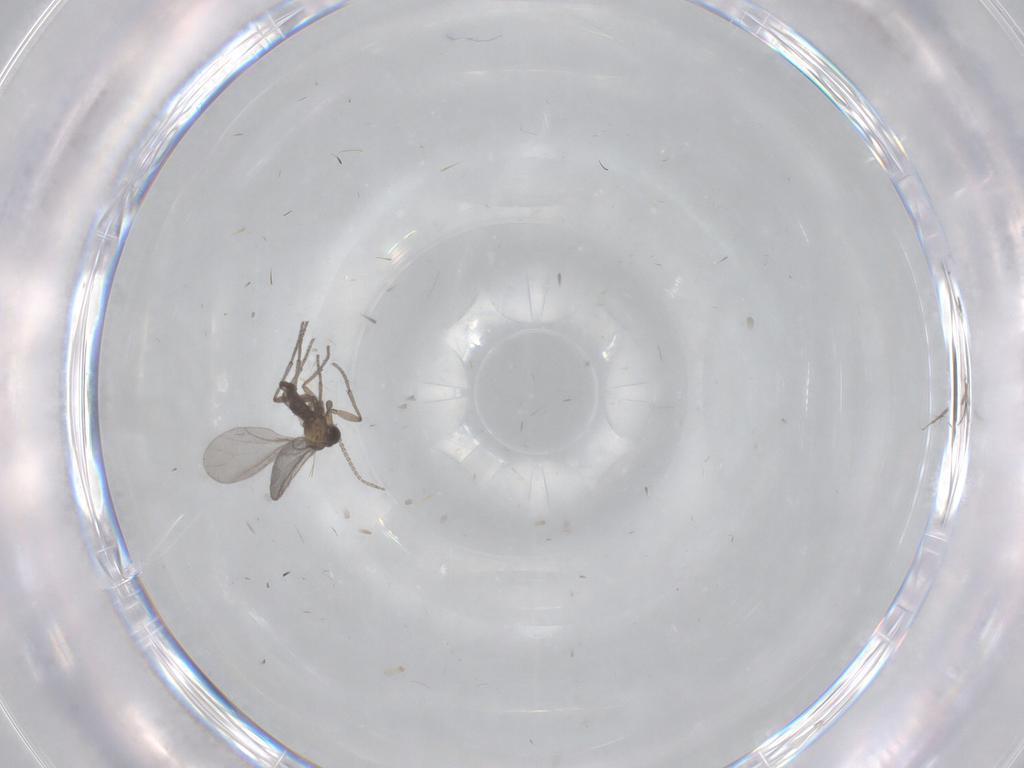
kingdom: Animalia
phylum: Arthropoda
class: Insecta
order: Diptera
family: Sciaridae
